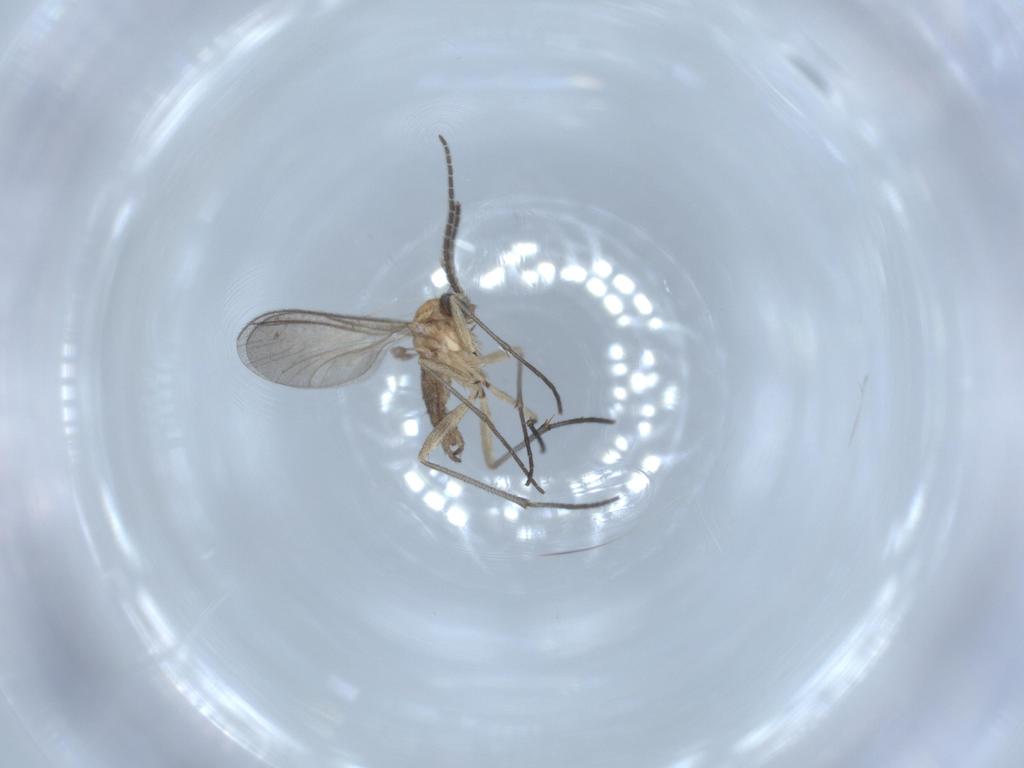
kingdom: Animalia
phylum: Arthropoda
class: Insecta
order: Diptera
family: Sciaridae
